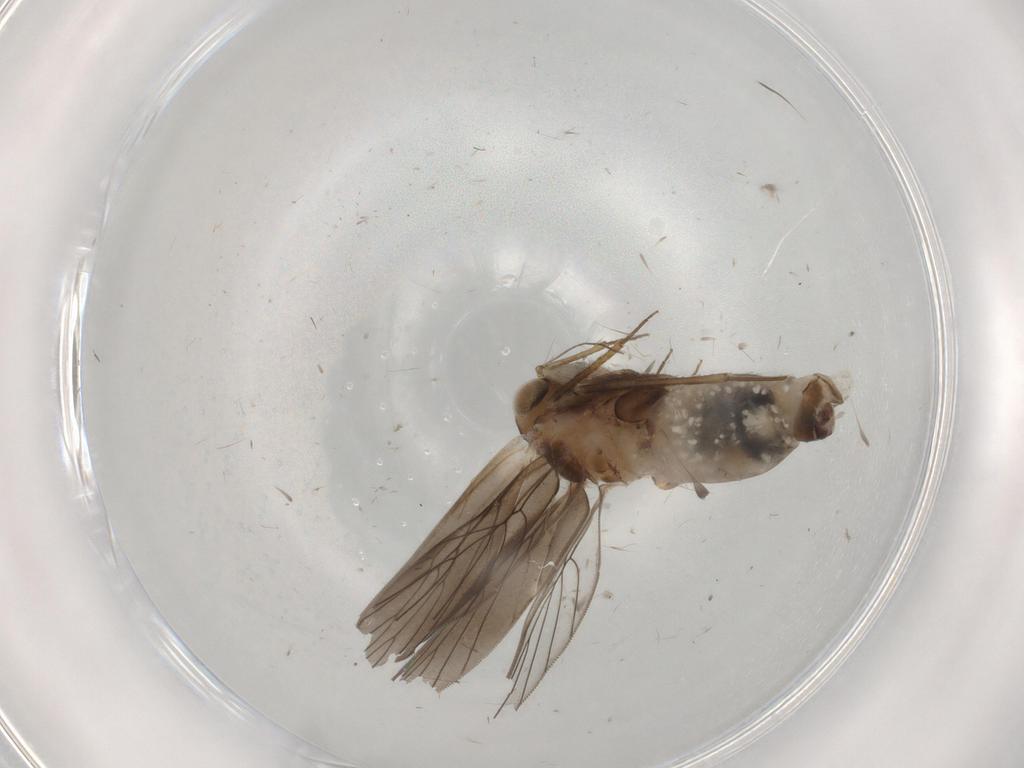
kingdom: Animalia
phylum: Arthropoda
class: Insecta
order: Psocodea
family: Lepidopsocidae
